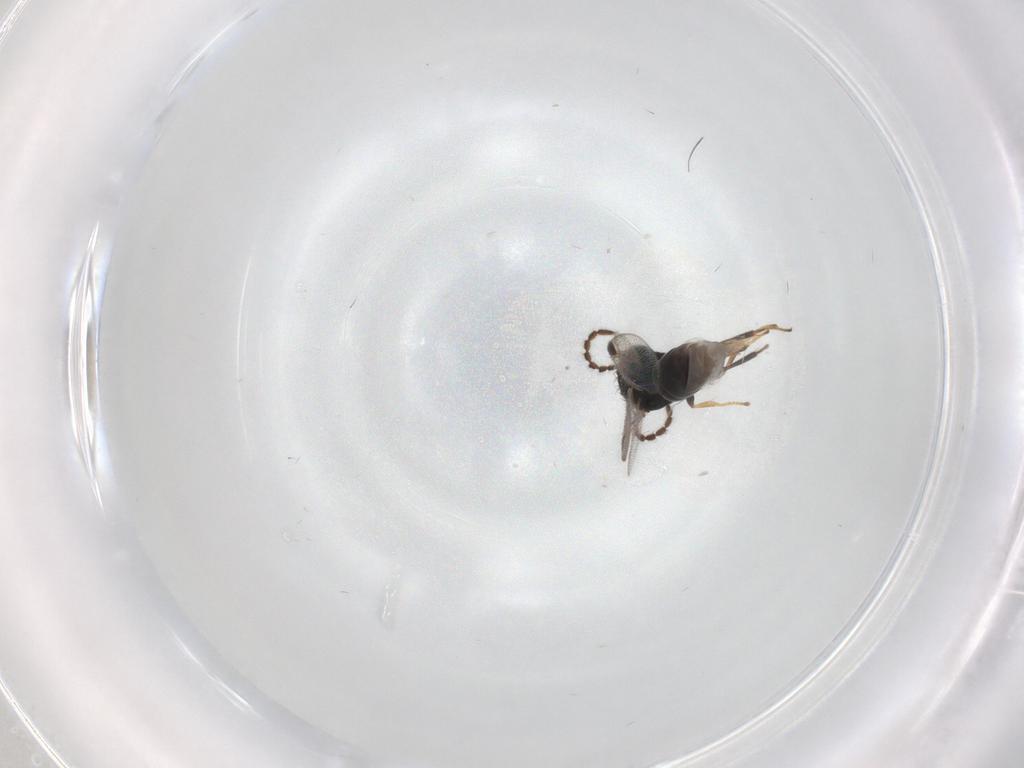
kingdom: Animalia
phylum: Arthropoda
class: Insecta
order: Hymenoptera
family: Dryinidae
